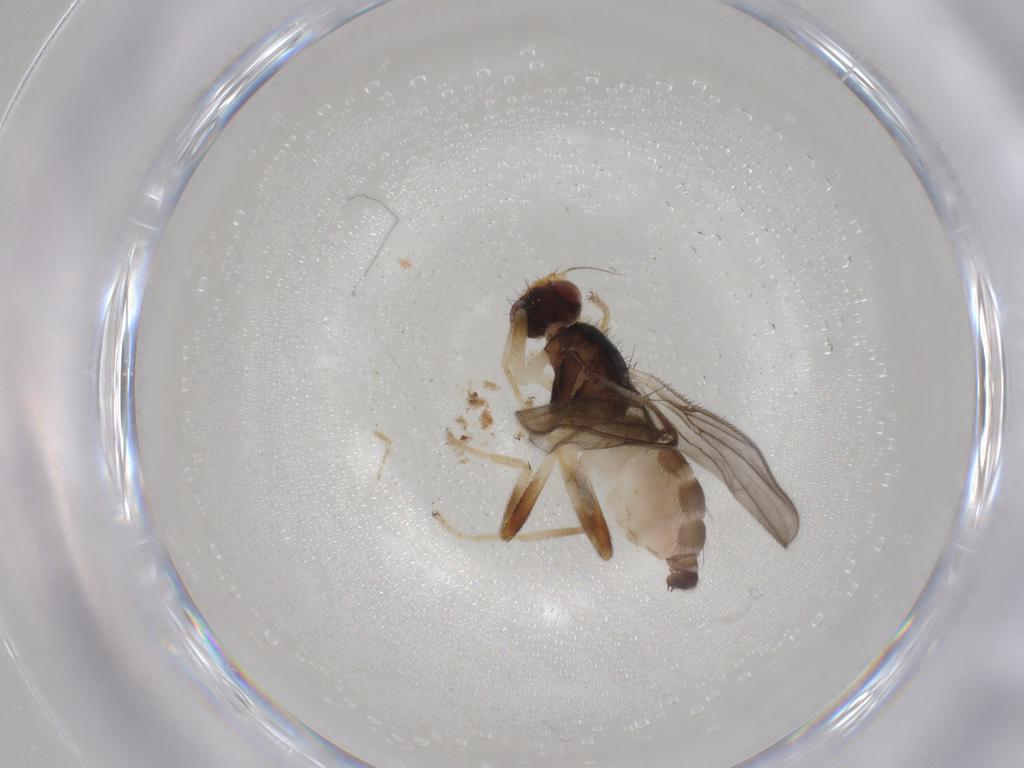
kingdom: Animalia
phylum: Arthropoda
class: Insecta
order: Diptera
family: Chloropidae
